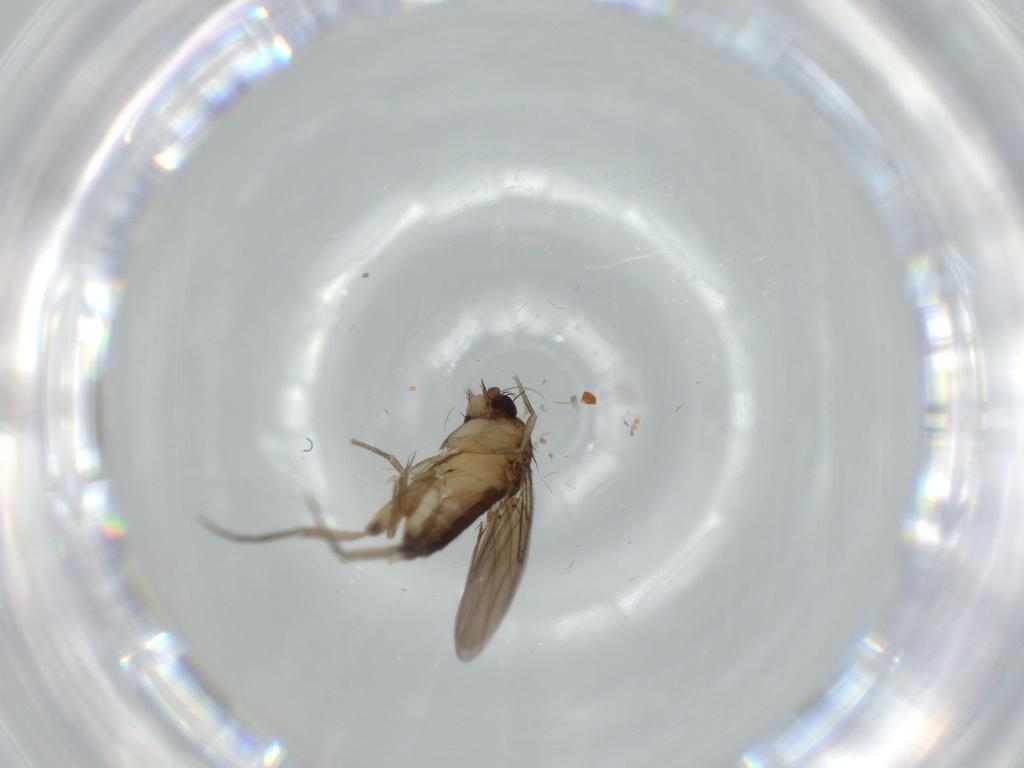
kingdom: Animalia
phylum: Arthropoda
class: Insecta
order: Diptera
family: Phoridae
